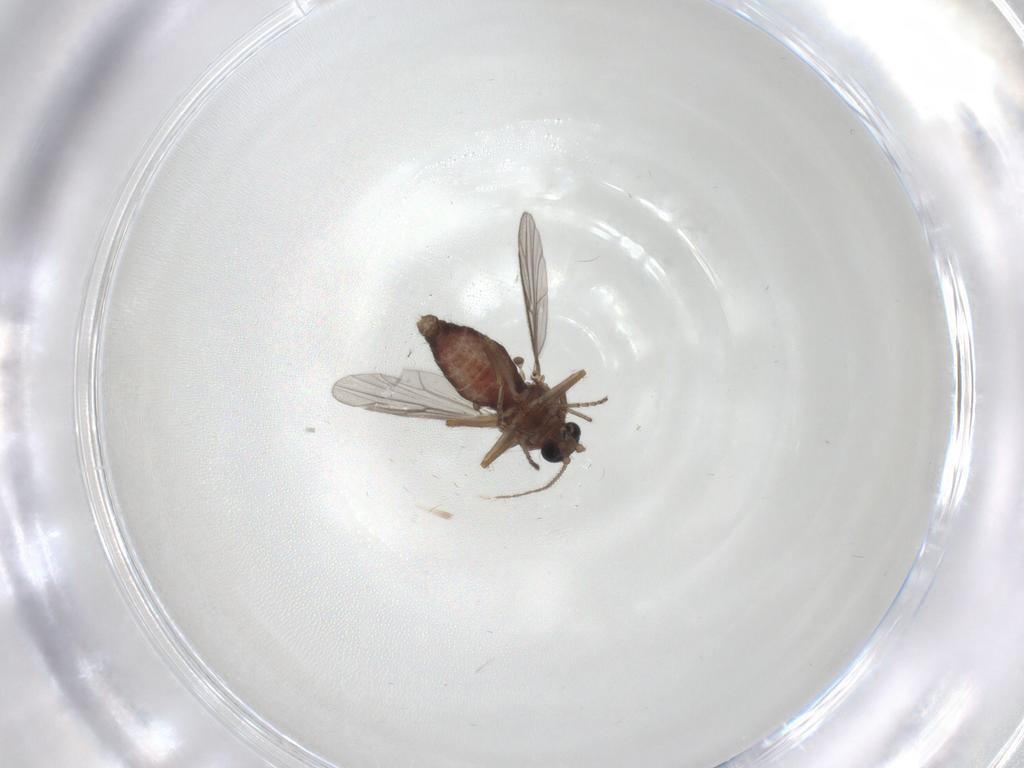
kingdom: Animalia
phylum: Arthropoda
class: Insecta
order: Diptera
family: Ceratopogonidae
